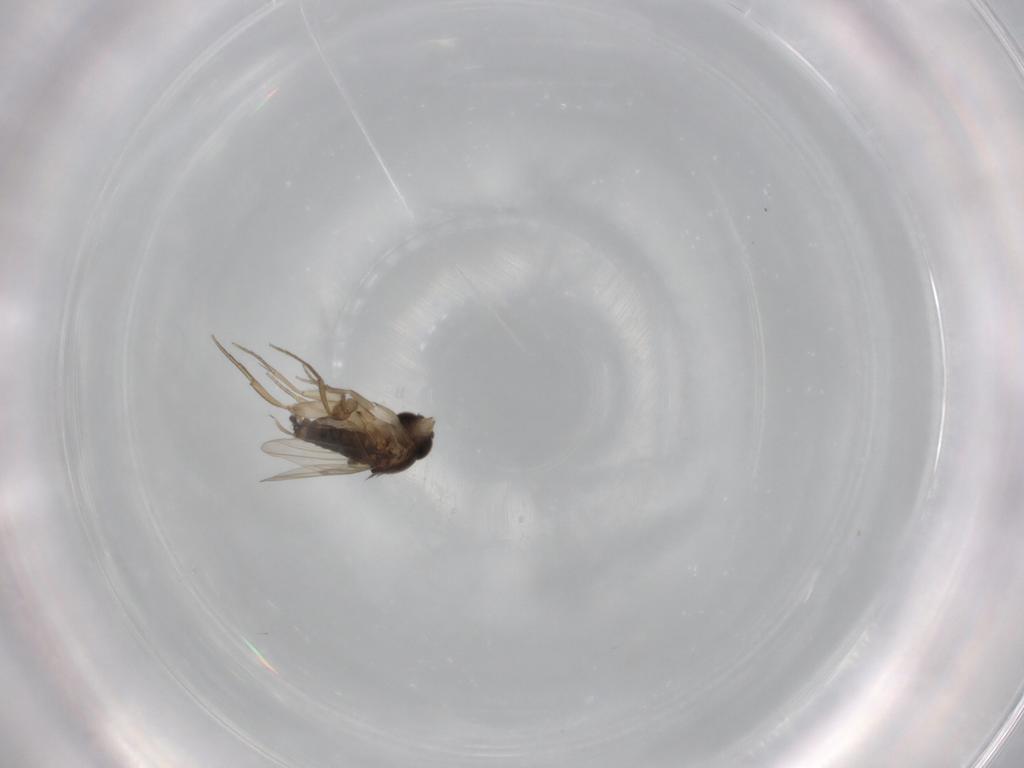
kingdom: Animalia
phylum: Arthropoda
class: Insecta
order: Diptera
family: Phoridae
